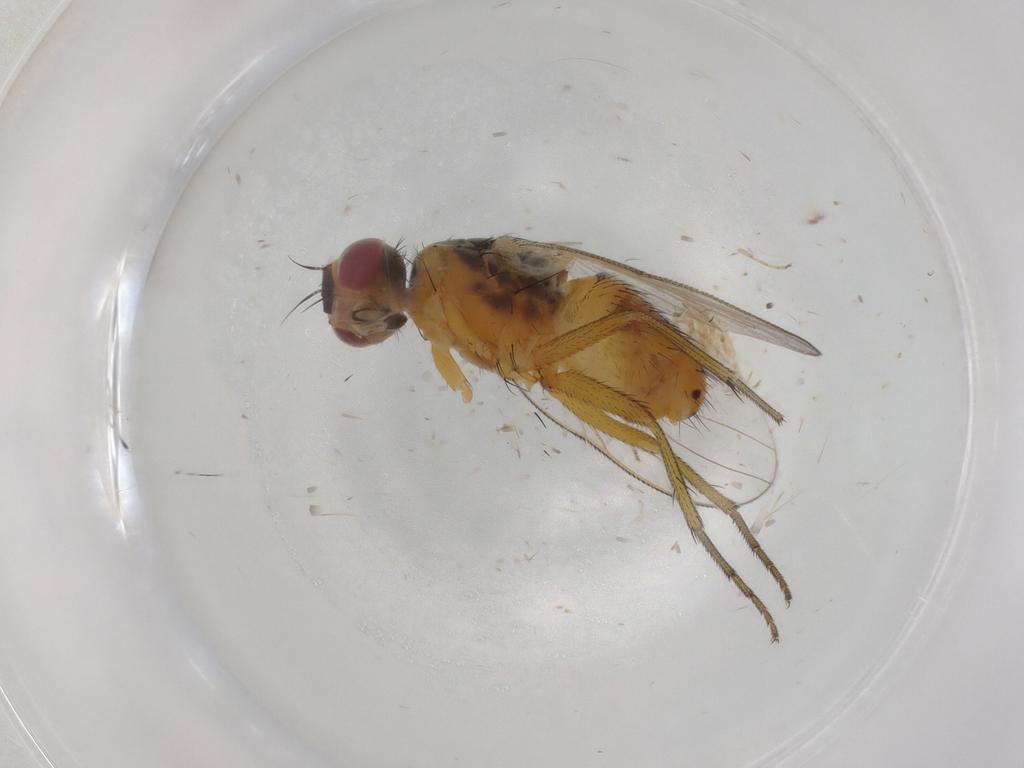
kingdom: Animalia
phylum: Arthropoda
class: Insecta
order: Diptera
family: Muscidae
